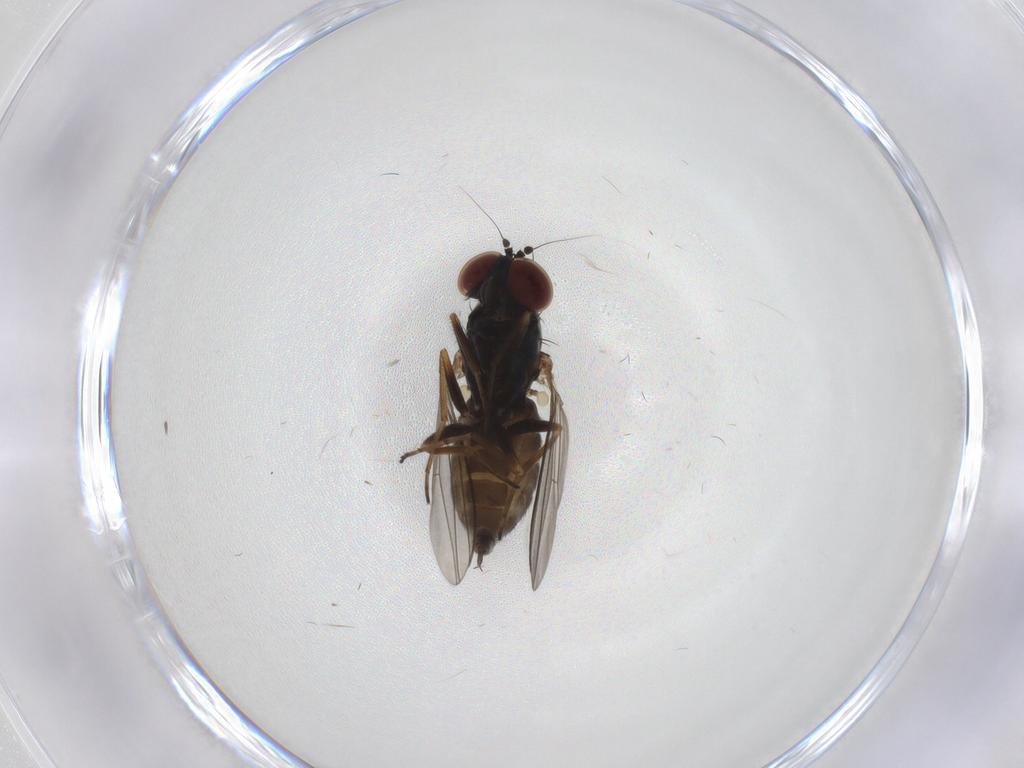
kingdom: Animalia
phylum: Arthropoda
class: Insecta
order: Diptera
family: Dolichopodidae
